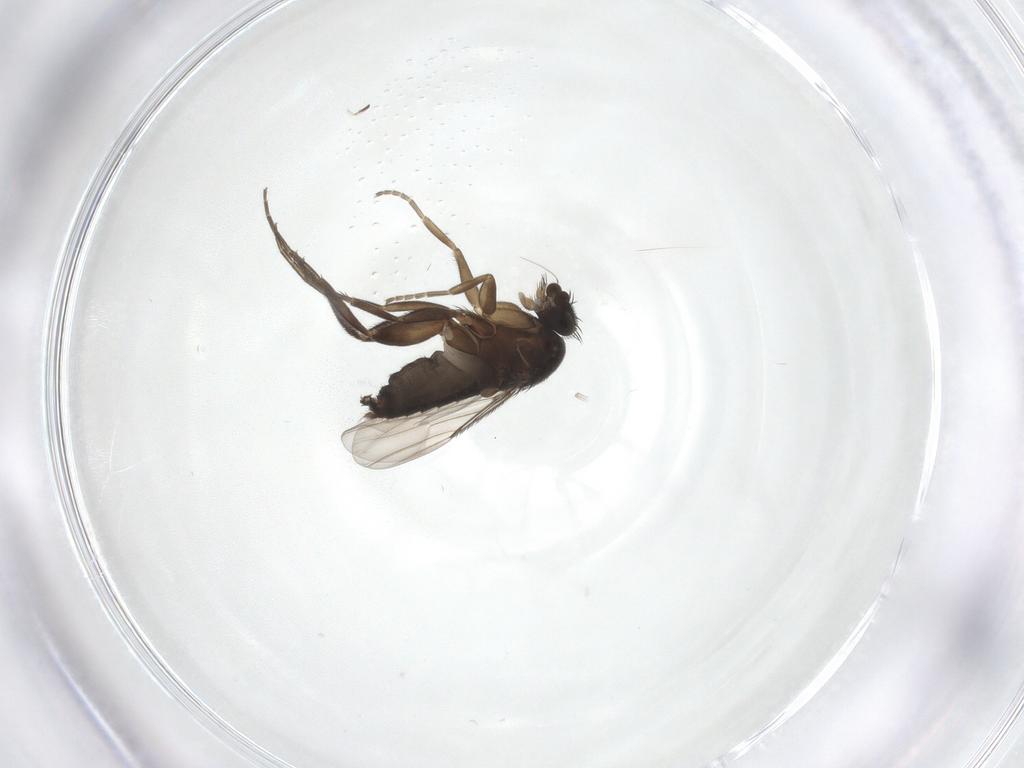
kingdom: Animalia
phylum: Arthropoda
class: Insecta
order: Diptera
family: Phoridae
